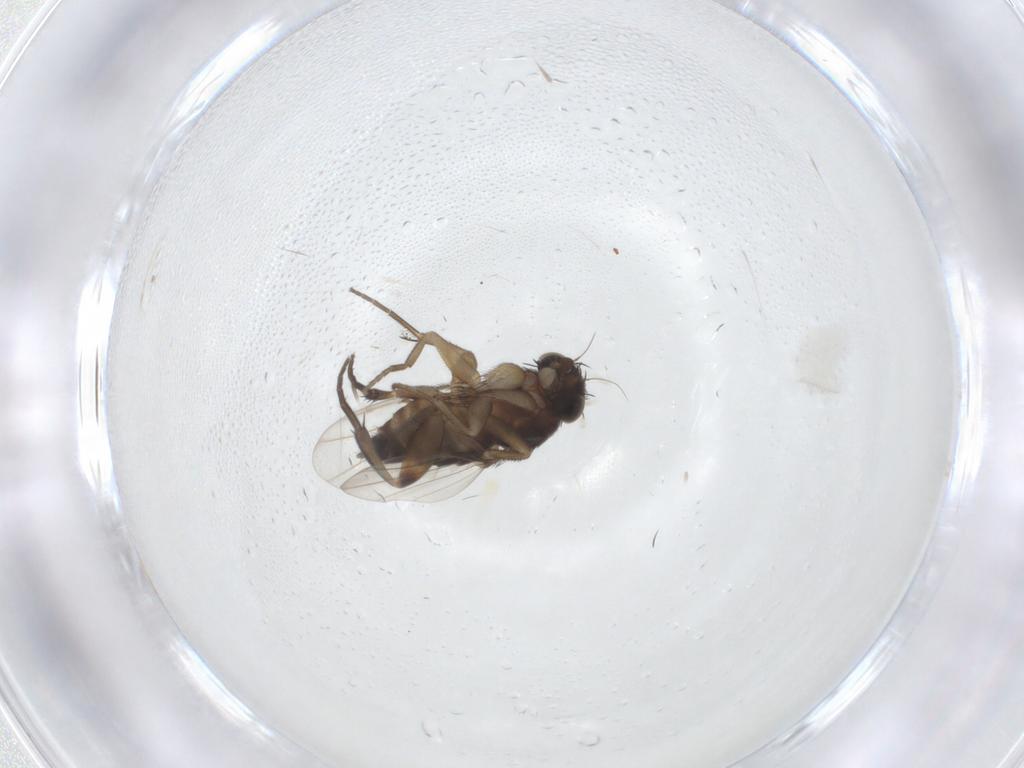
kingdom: Animalia
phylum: Arthropoda
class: Insecta
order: Diptera
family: Phoridae
